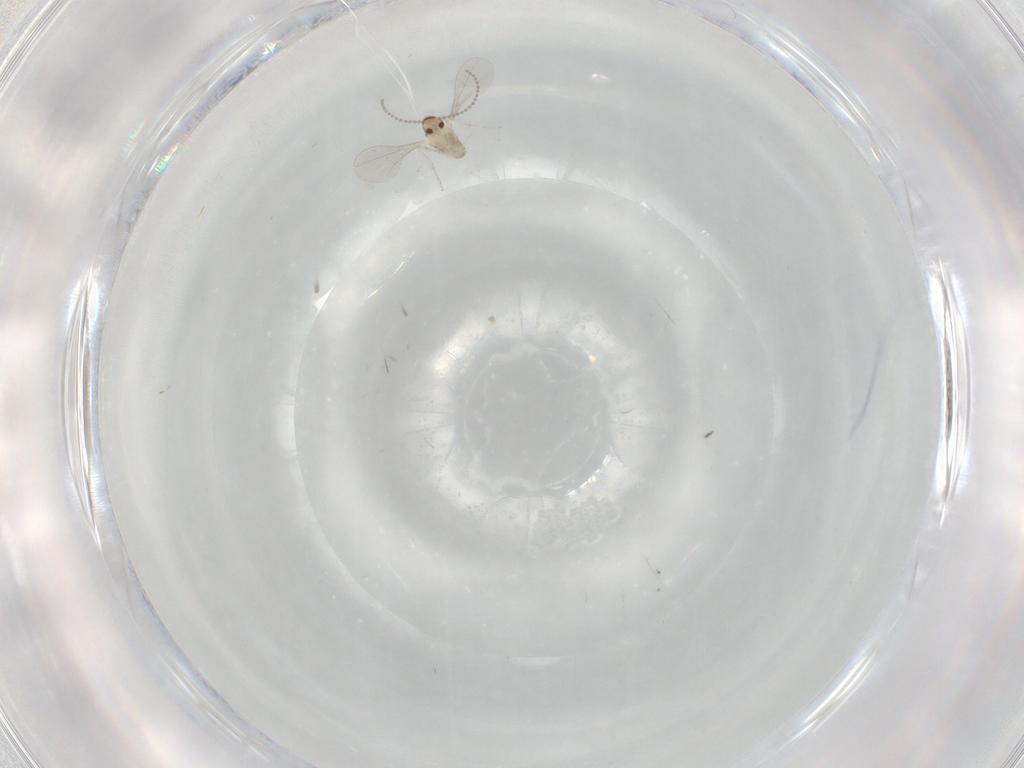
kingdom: Animalia
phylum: Arthropoda
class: Insecta
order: Diptera
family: Cecidomyiidae
